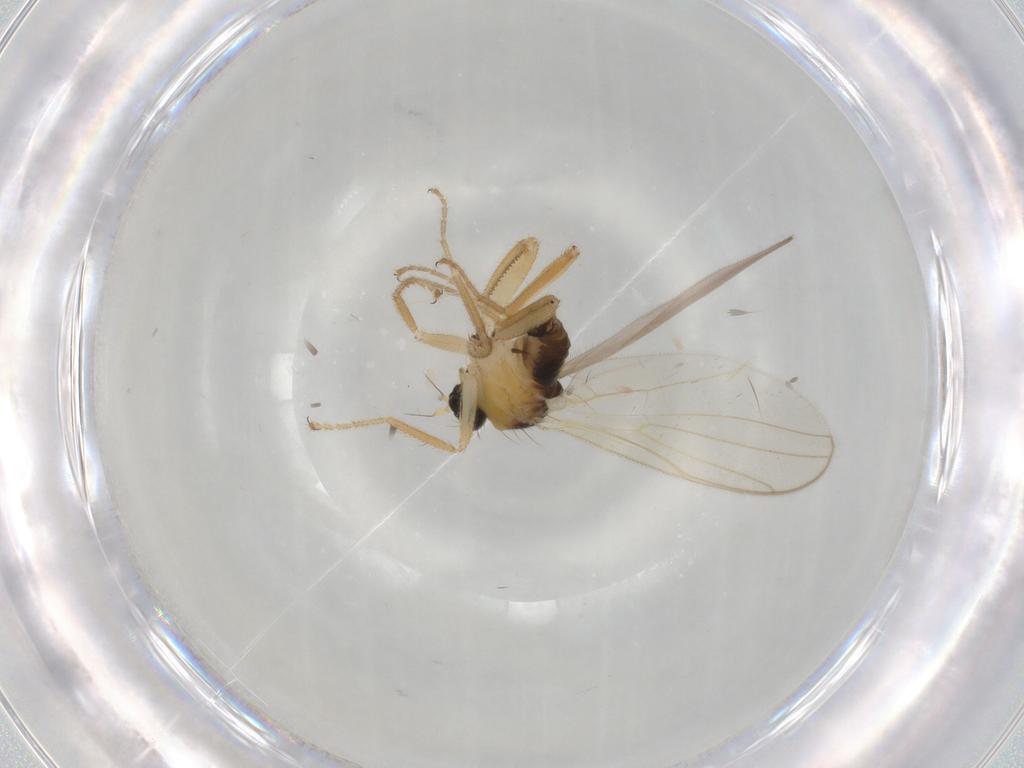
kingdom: Animalia
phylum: Arthropoda
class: Insecta
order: Diptera
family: Hybotidae
